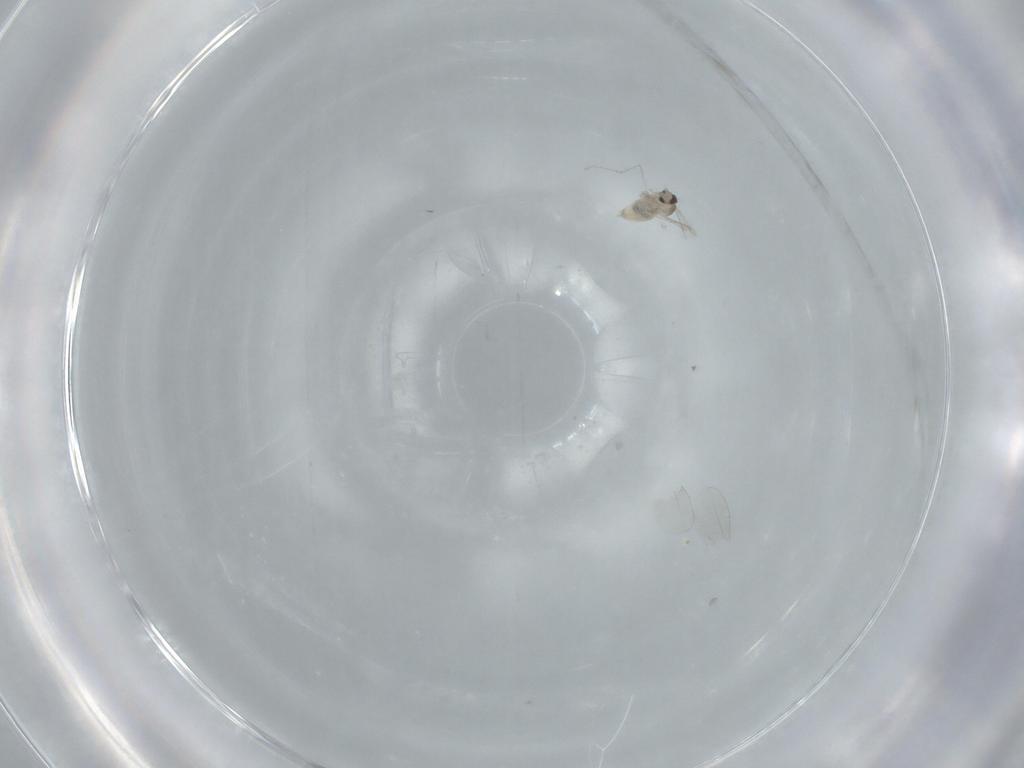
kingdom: Animalia
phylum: Arthropoda
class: Insecta
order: Diptera
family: Cecidomyiidae
